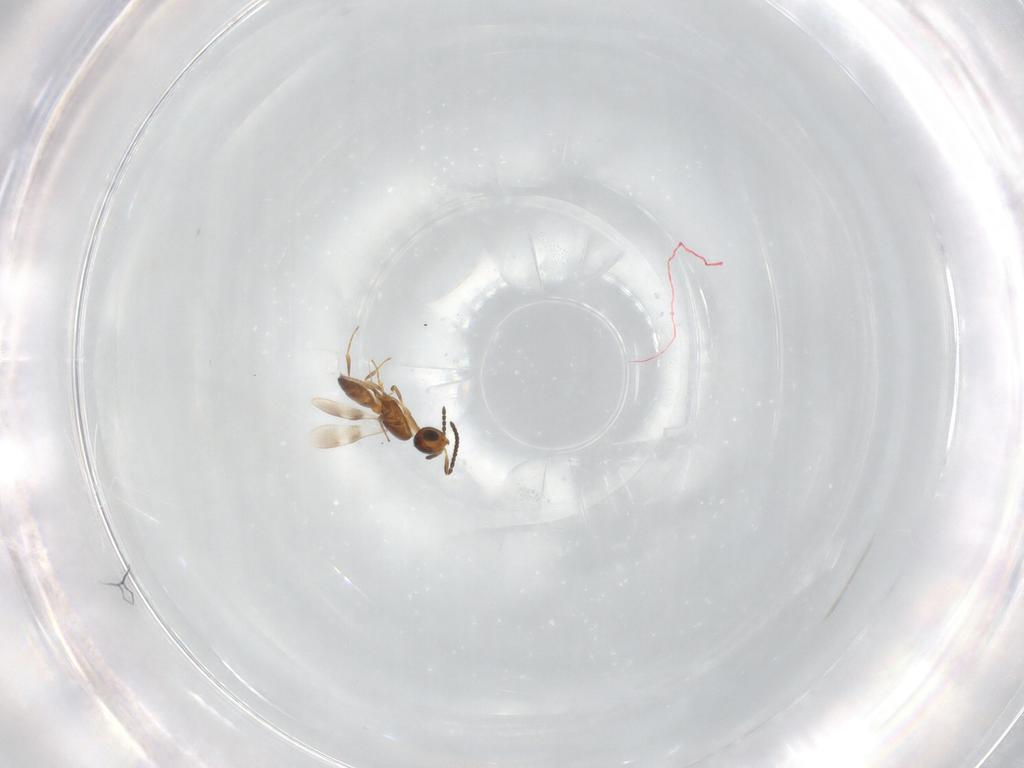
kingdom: Animalia
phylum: Arthropoda
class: Insecta
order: Hymenoptera
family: Scelionidae
